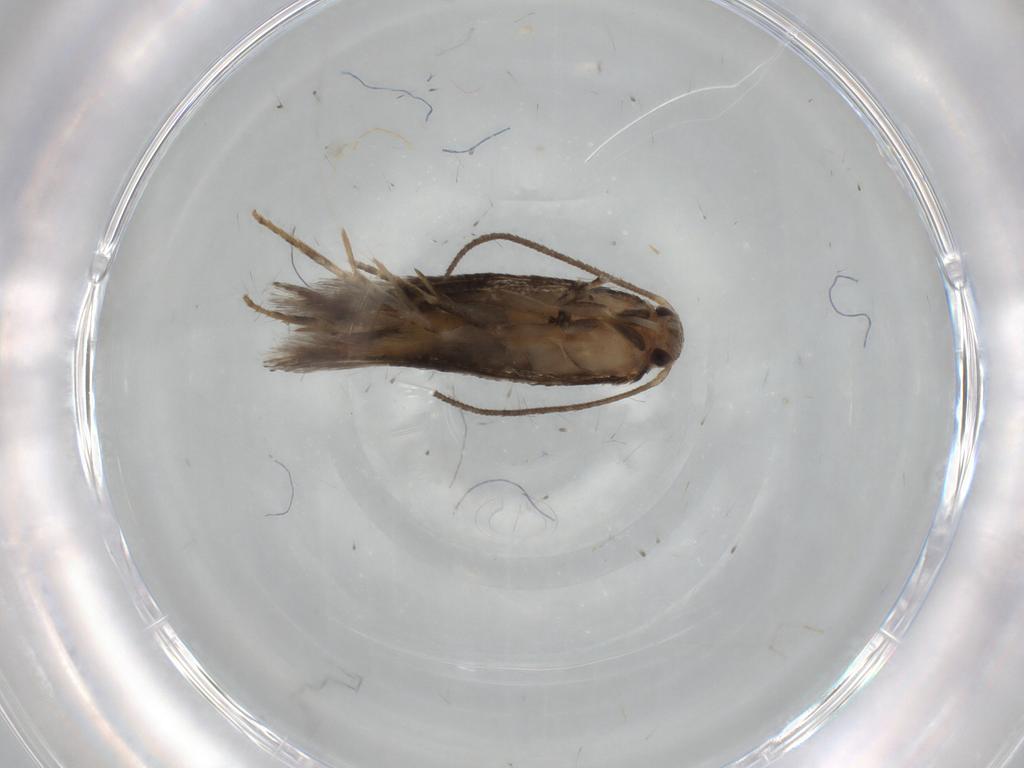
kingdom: Animalia
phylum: Arthropoda
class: Insecta
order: Lepidoptera
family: Elachistidae
